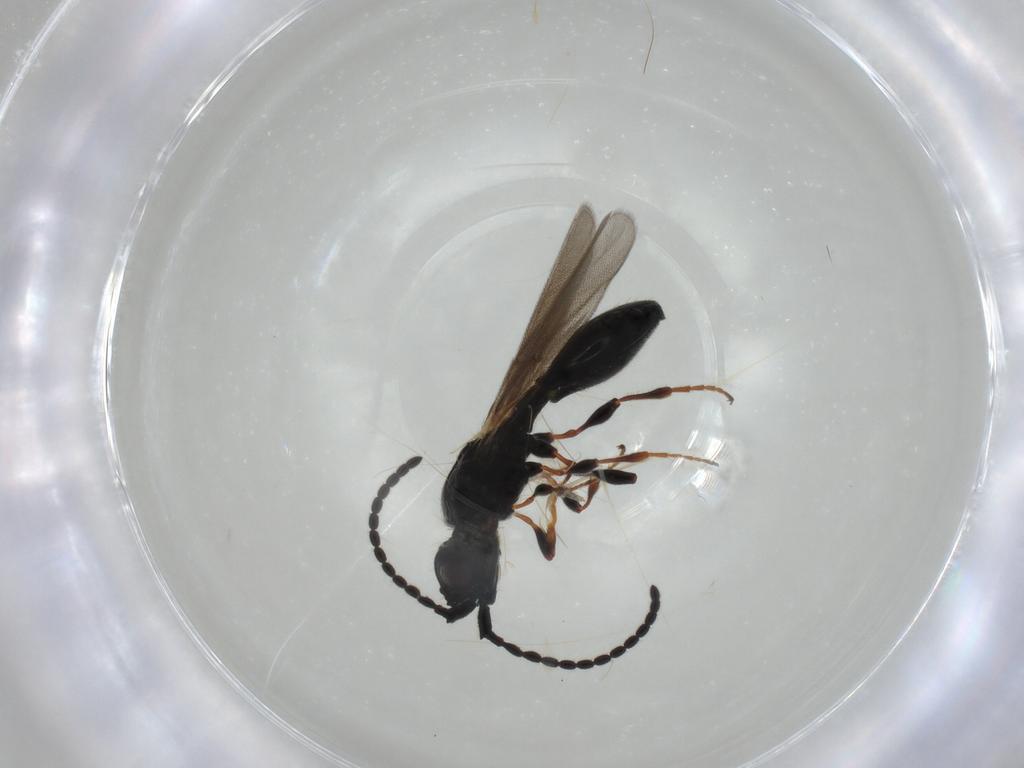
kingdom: Animalia
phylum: Arthropoda
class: Insecta
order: Hymenoptera
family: Diapriidae
